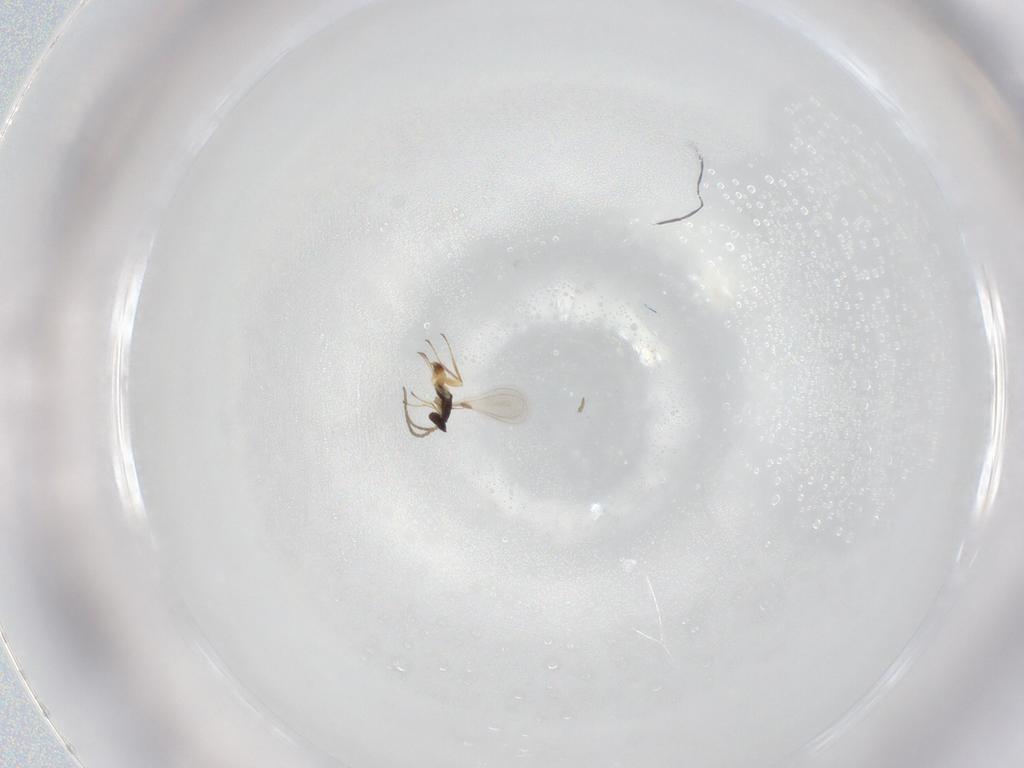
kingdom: Animalia
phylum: Arthropoda
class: Insecta
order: Hymenoptera
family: Mymaridae
